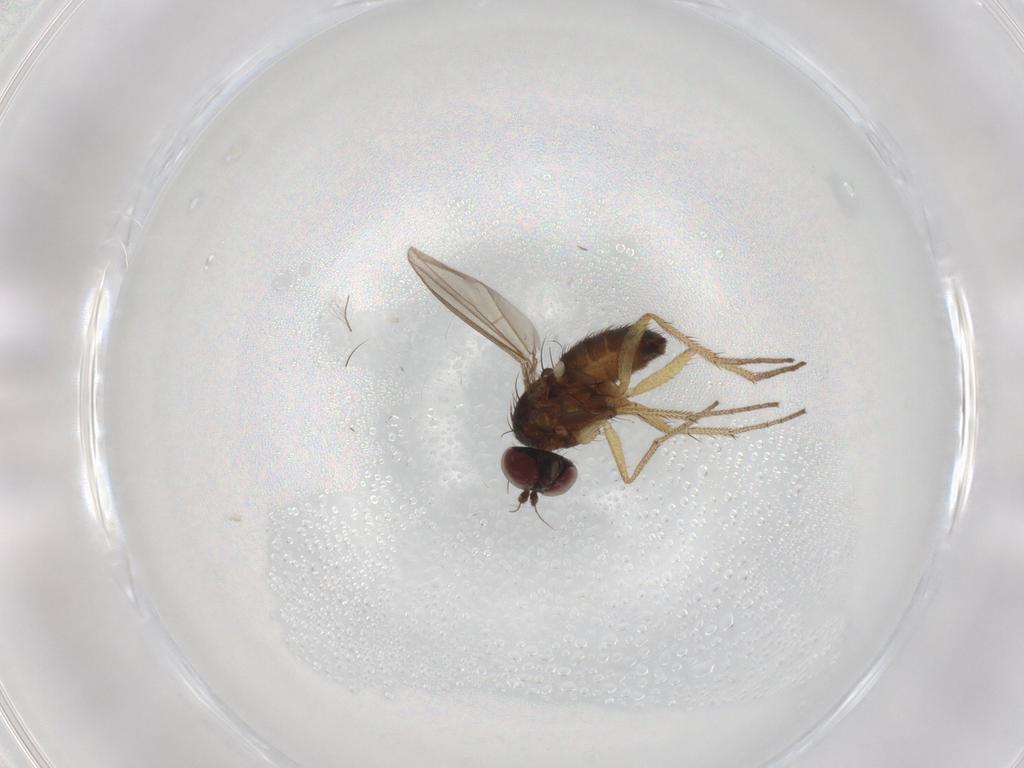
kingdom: Animalia
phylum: Arthropoda
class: Insecta
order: Diptera
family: Dolichopodidae
